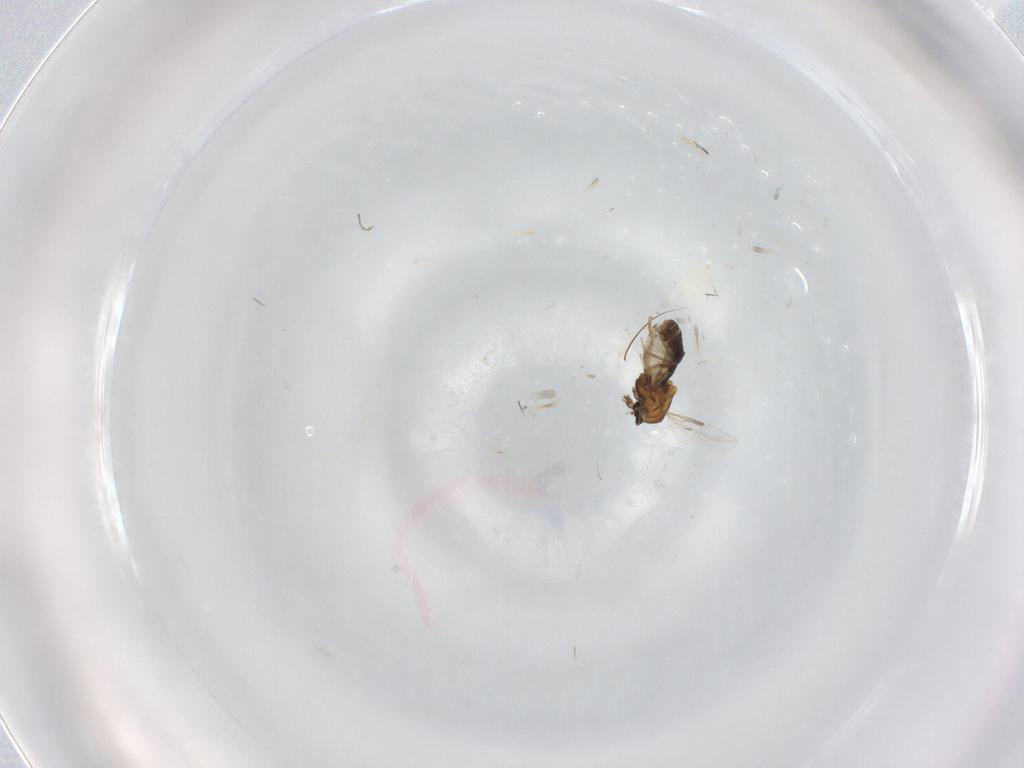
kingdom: Animalia
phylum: Arthropoda
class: Insecta
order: Diptera
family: Ceratopogonidae
